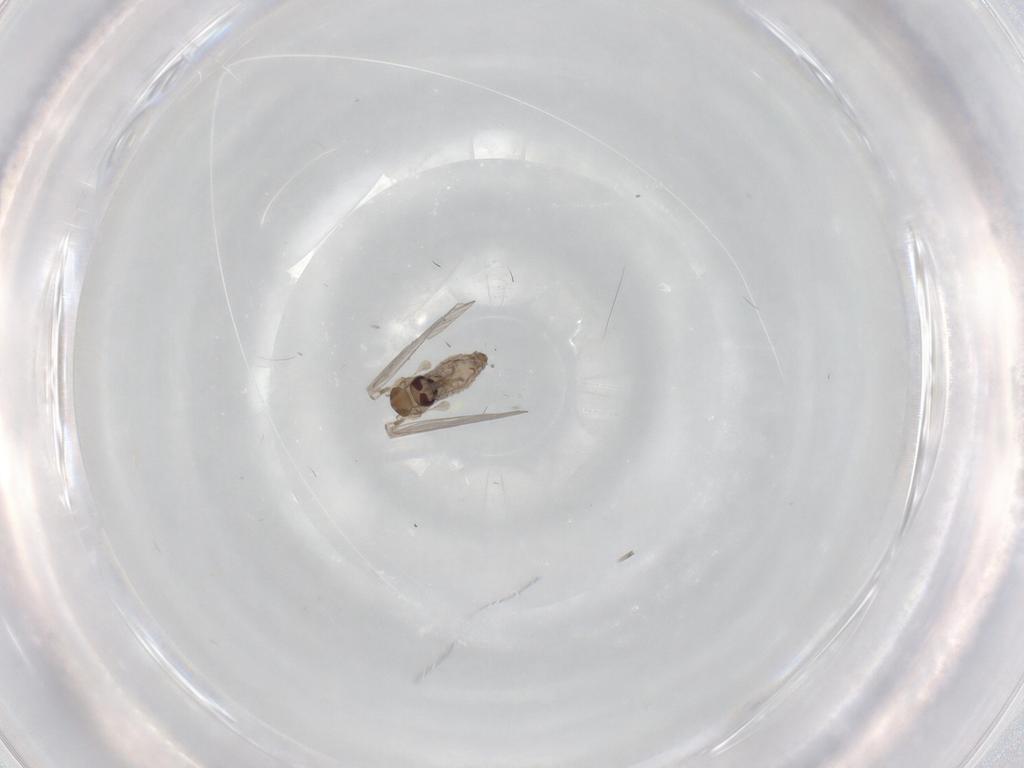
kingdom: Animalia
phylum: Arthropoda
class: Insecta
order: Diptera
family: Psychodidae
